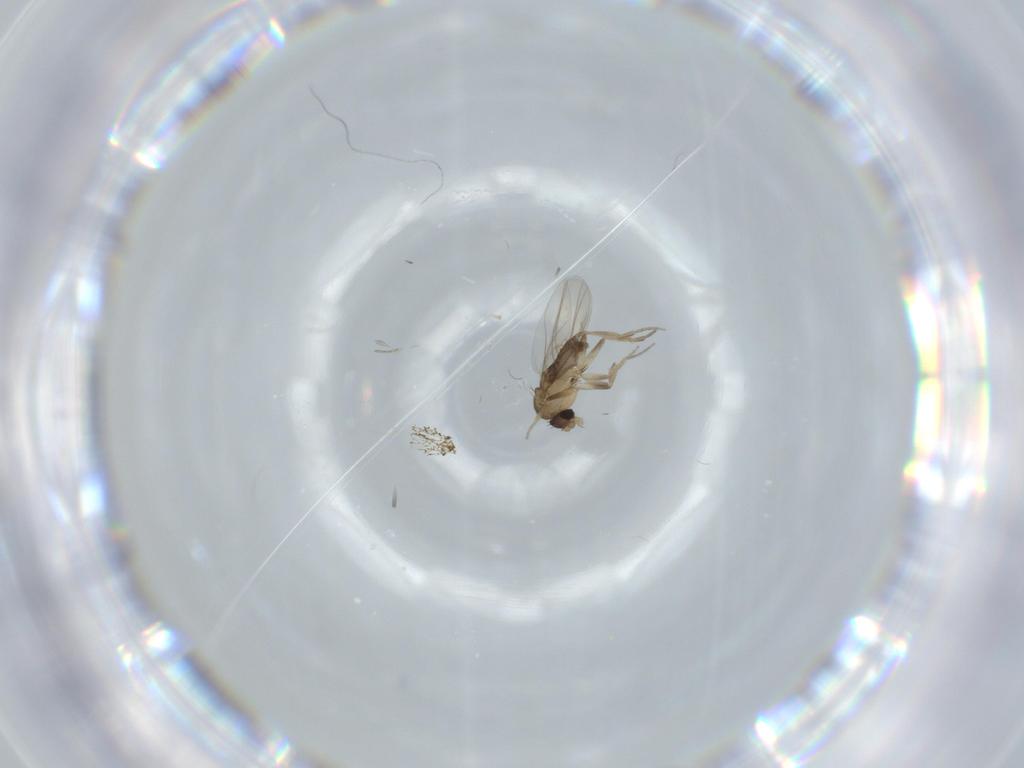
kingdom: Animalia
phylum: Arthropoda
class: Insecta
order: Diptera
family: Phoridae
